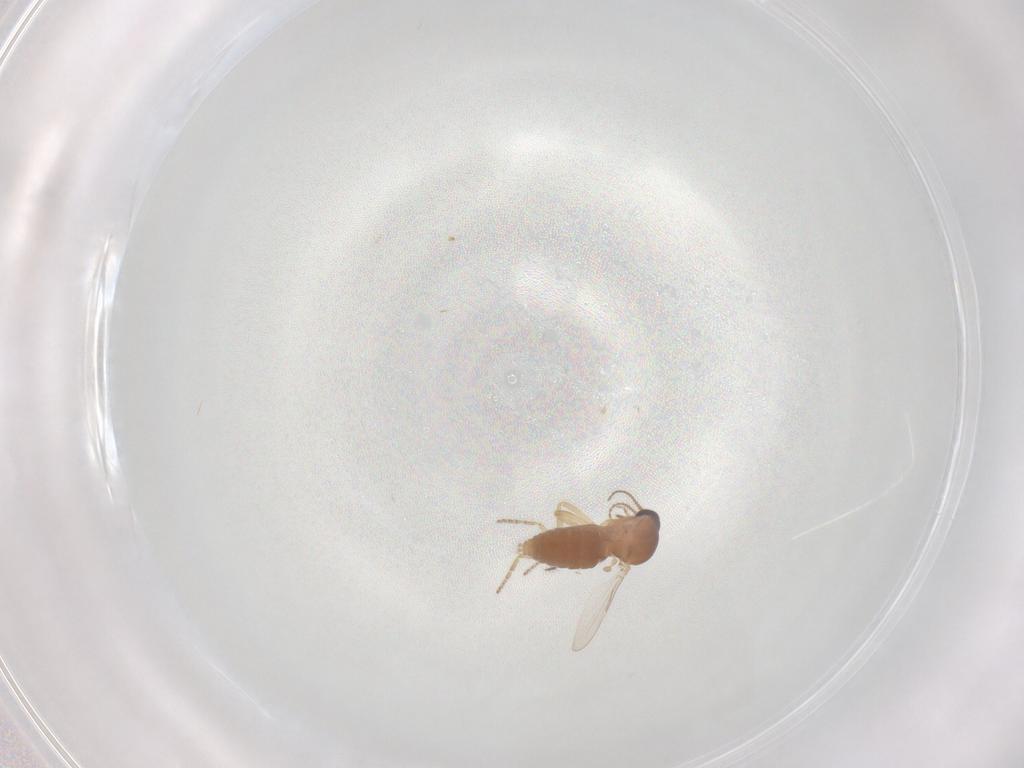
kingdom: Animalia
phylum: Arthropoda
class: Insecta
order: Diptera
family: Ceratopogonidae
